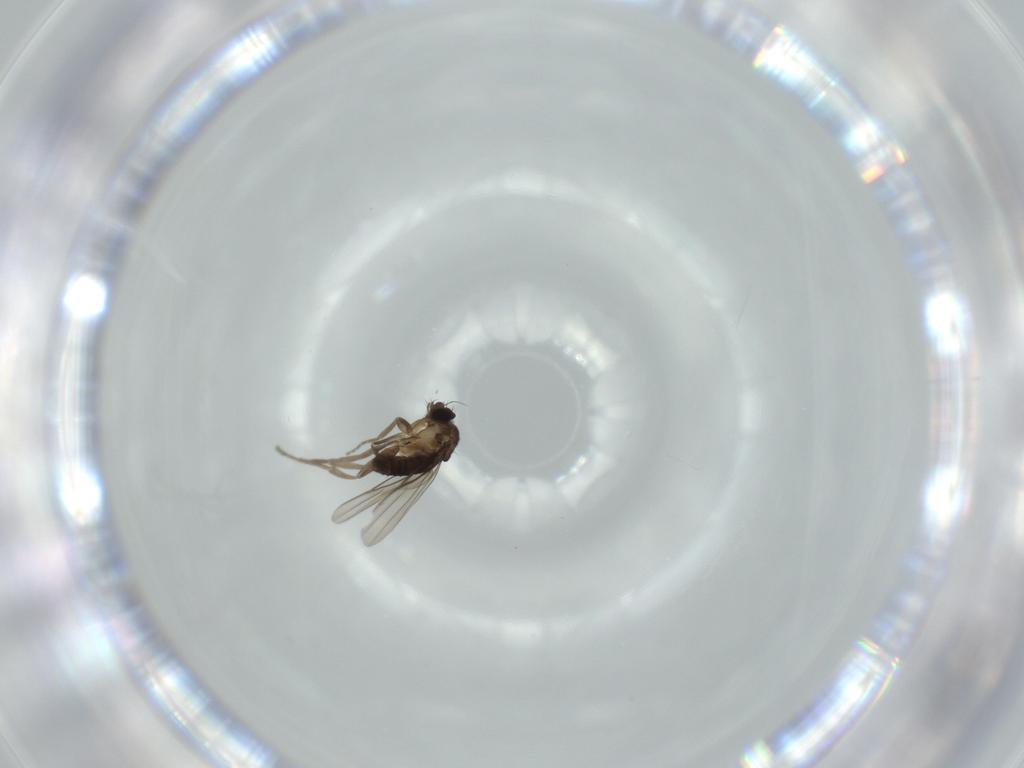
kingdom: Animalia
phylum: Arthropoda
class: Insecta
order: Diptera
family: Phoridae
